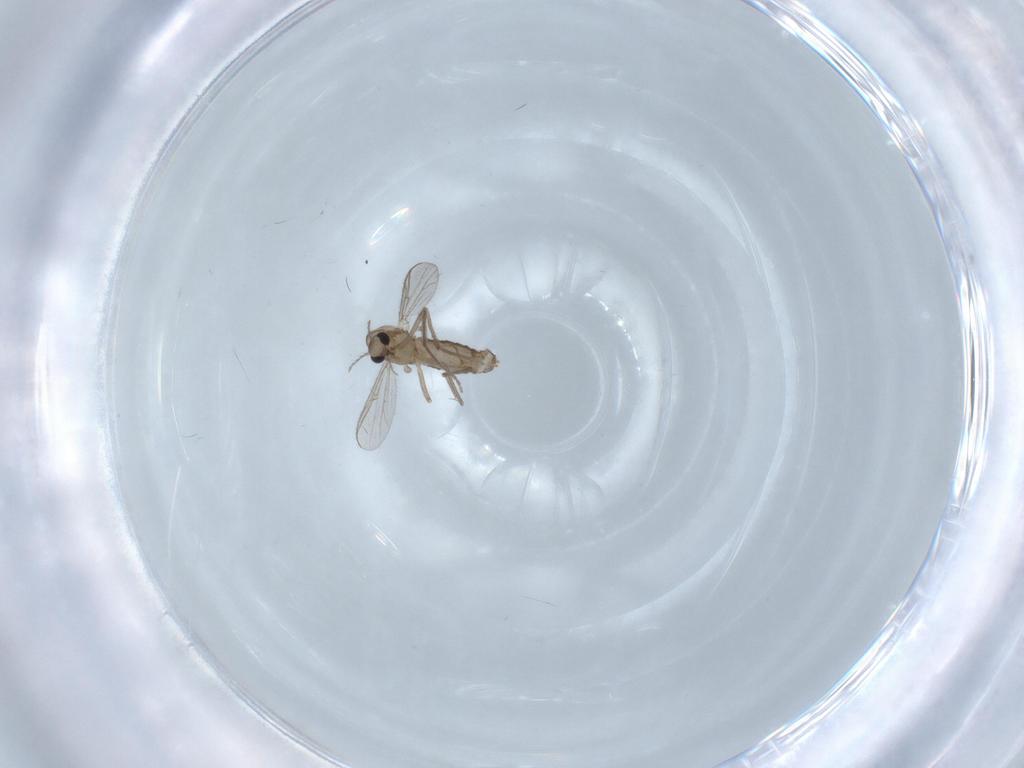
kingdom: Animalia
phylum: Arthropoda
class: Insecta
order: Diptera
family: Chironomidae
